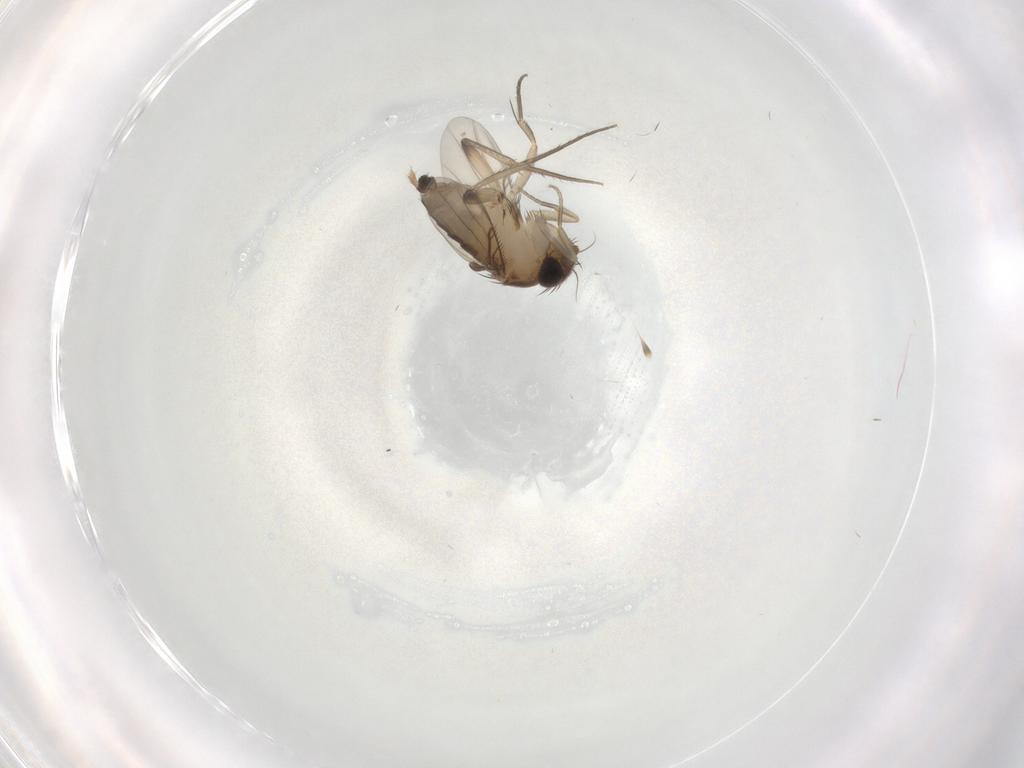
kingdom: Animalia
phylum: Arthropoda
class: Insecta
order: Diptera
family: Phoridae
